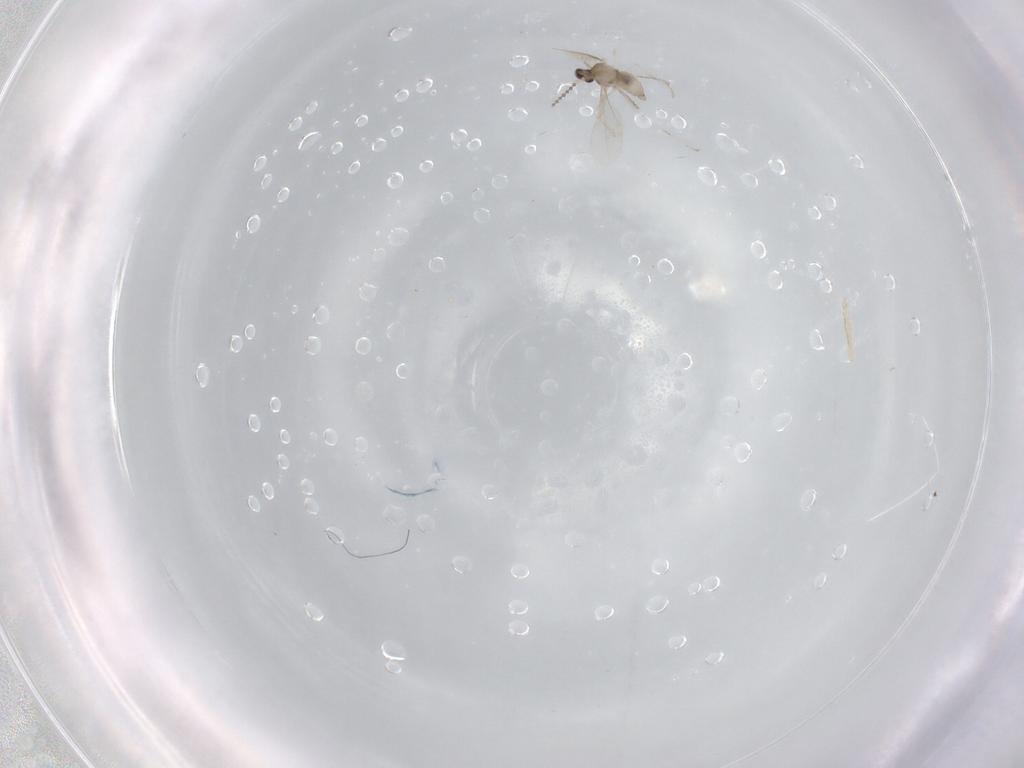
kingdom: Animalia
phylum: Arthropoda
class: Insecta
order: Diptera
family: Cecidomyiidae
